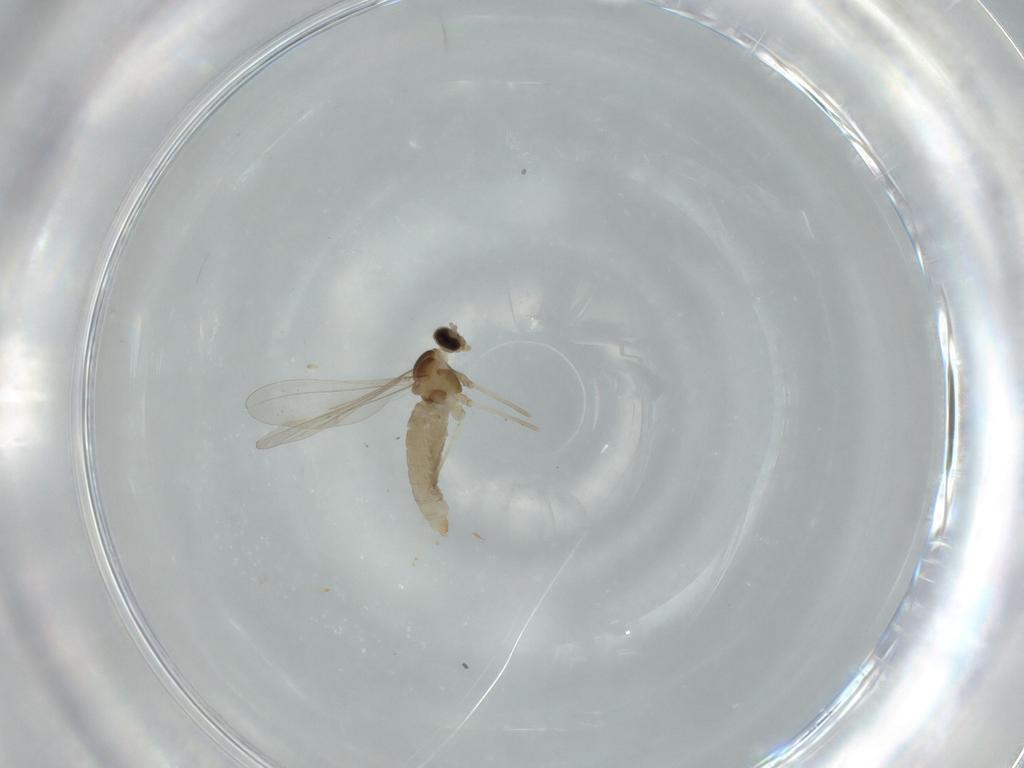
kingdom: Animalia
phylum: Arthropoda
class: Insecta
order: Diptera
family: Cecidomyiidae
